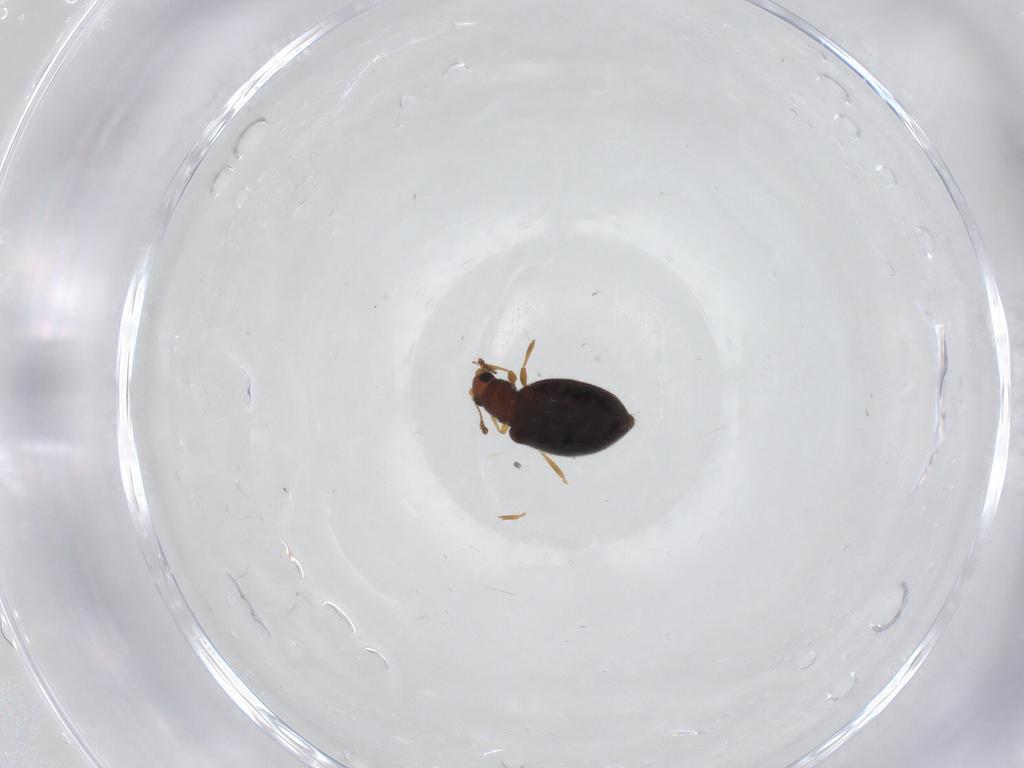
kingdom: Animalia
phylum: Arthropoda
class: Insecta
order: Coleoptera
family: Latridiidae
